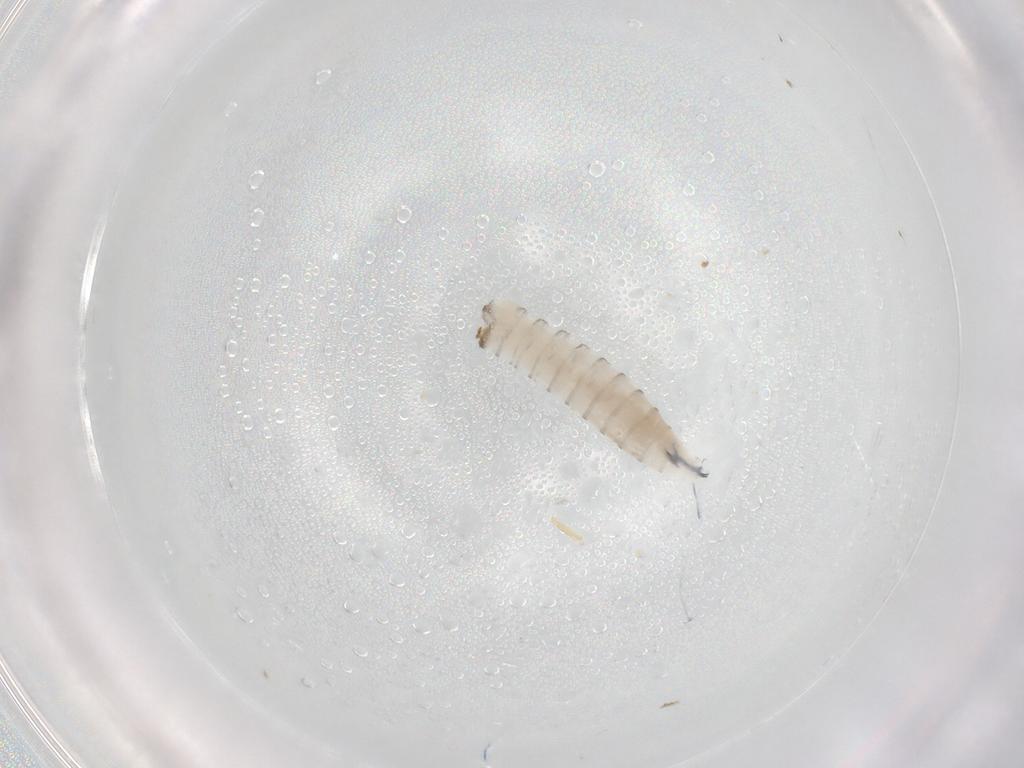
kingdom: Animalia
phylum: Arthropoda
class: Insecta
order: Diptera
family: Sarcophagidae
